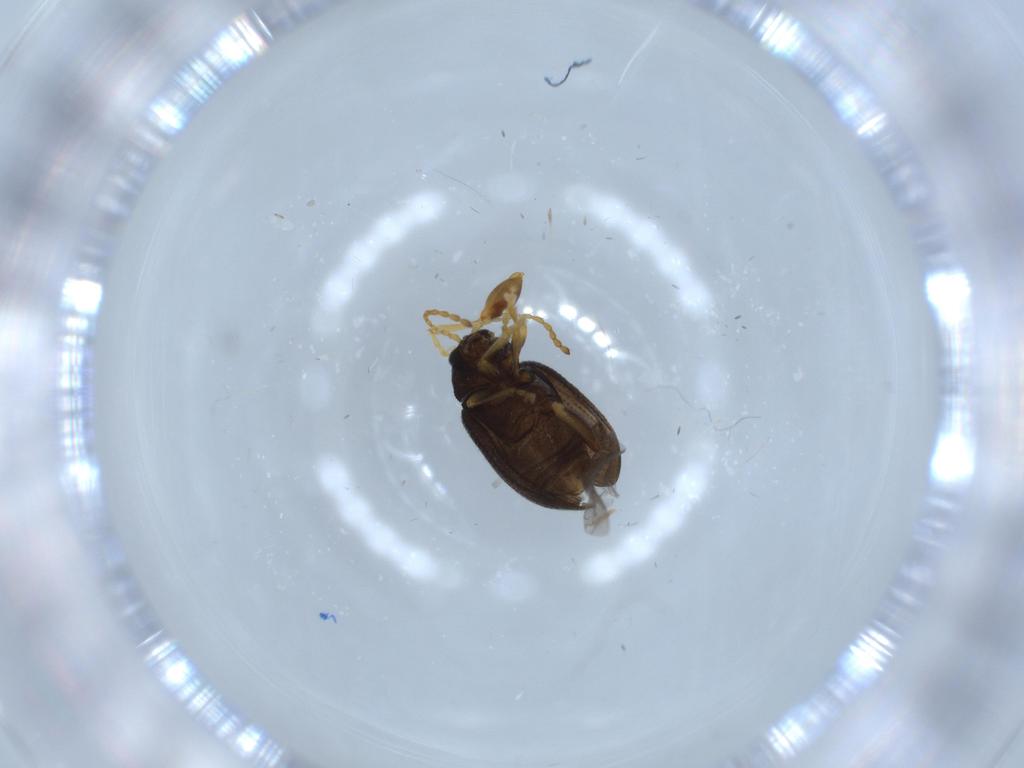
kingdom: Animalia
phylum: Arthropoda
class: Insecta
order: Coleoptera
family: Chrysomelidae
